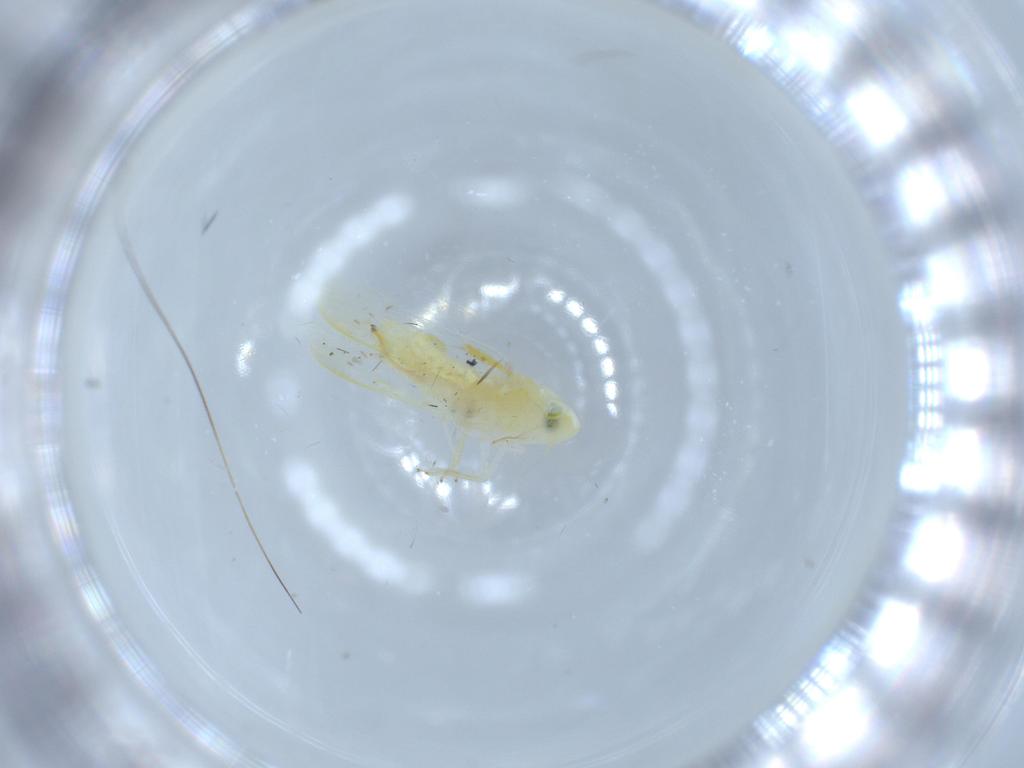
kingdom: Animalia
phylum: Arthropoda
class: Insecta
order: Hemiptera
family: Cicadellidae
